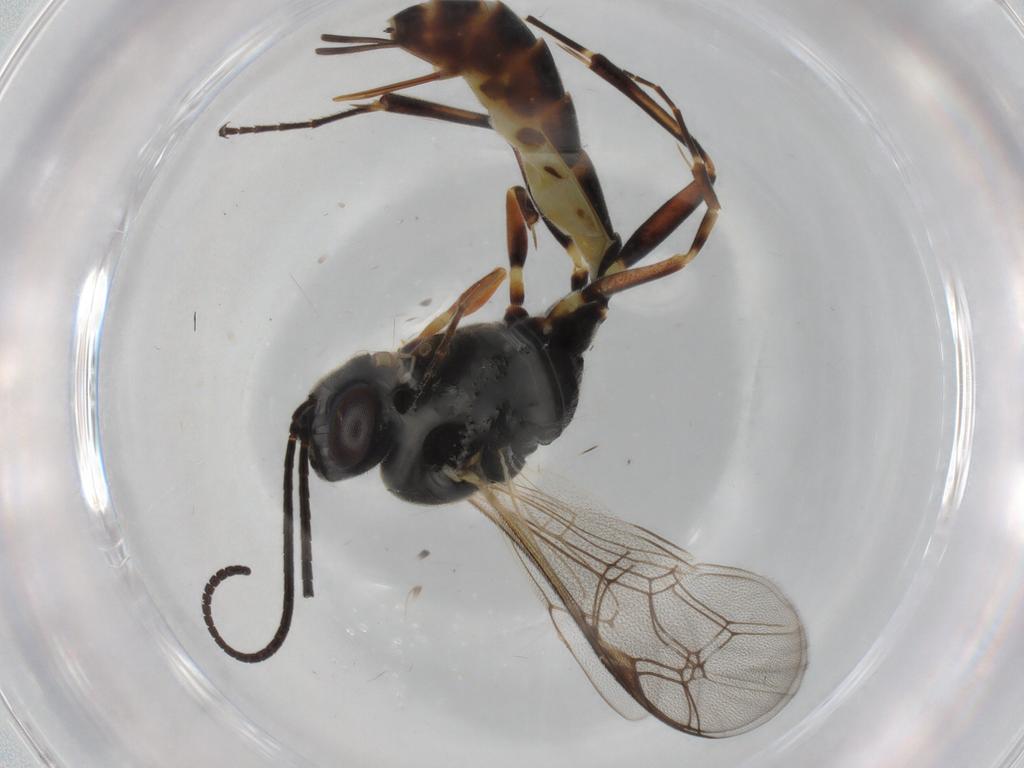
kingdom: Animalia
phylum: Arthropoda
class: Insecta
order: Hymenoptera
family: Ichneumonidae
